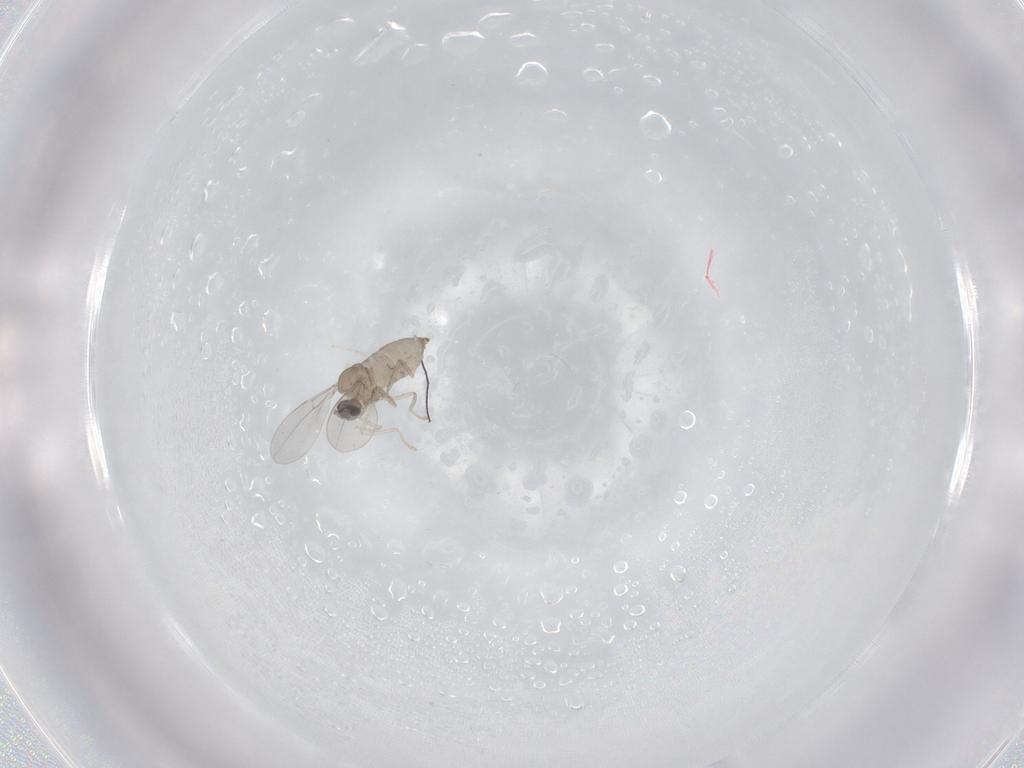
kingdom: Animalia
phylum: Arthropoda
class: Insecta
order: Diptera
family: Cecidomyiidae
